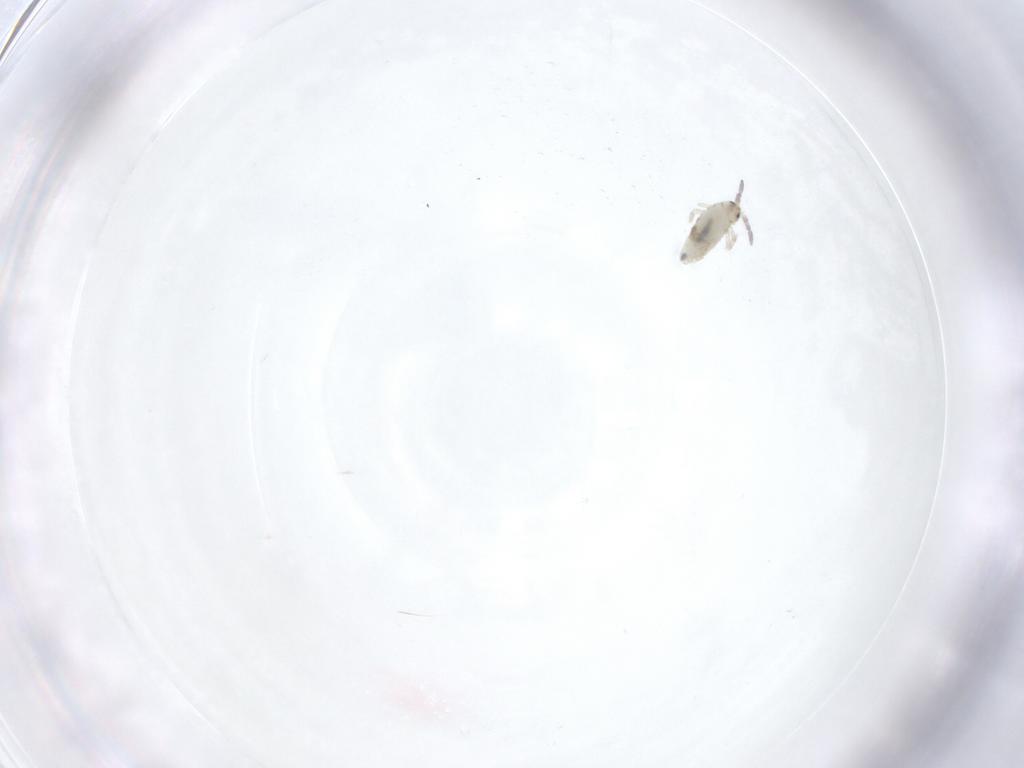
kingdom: Animalia
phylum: Arthropoda
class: Collembola
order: Entomobryomorpha
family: Entomobryidae
